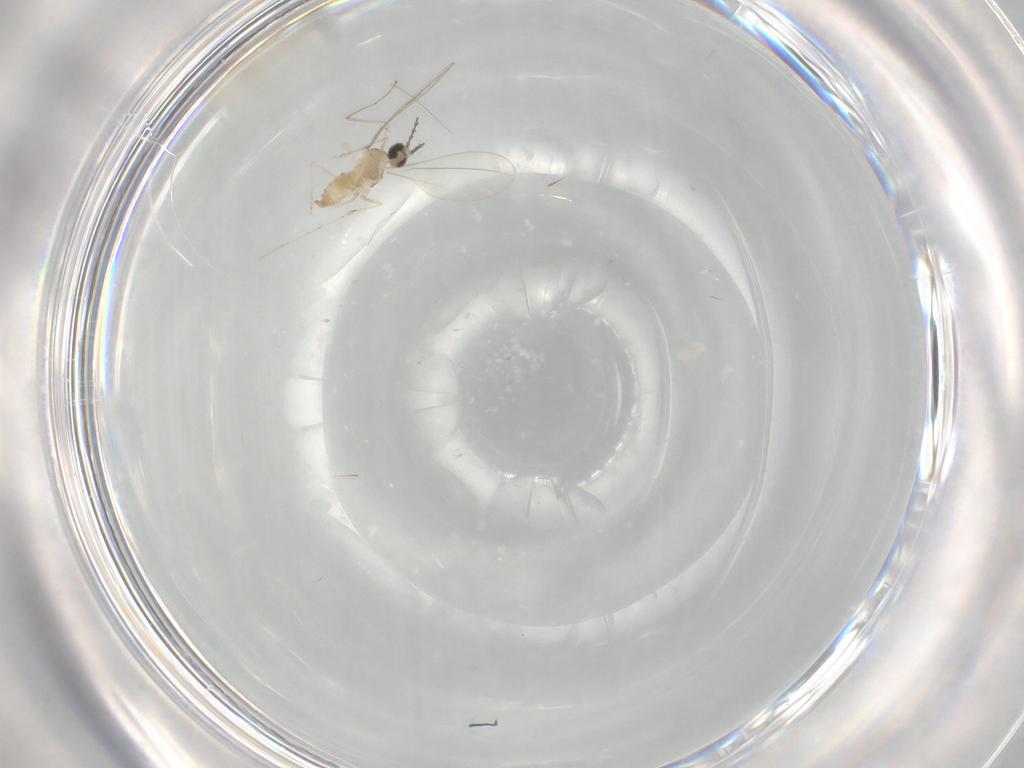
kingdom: Animalia
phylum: Arthropoda
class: Insecta
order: Diptera
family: Cecidomyiidae
